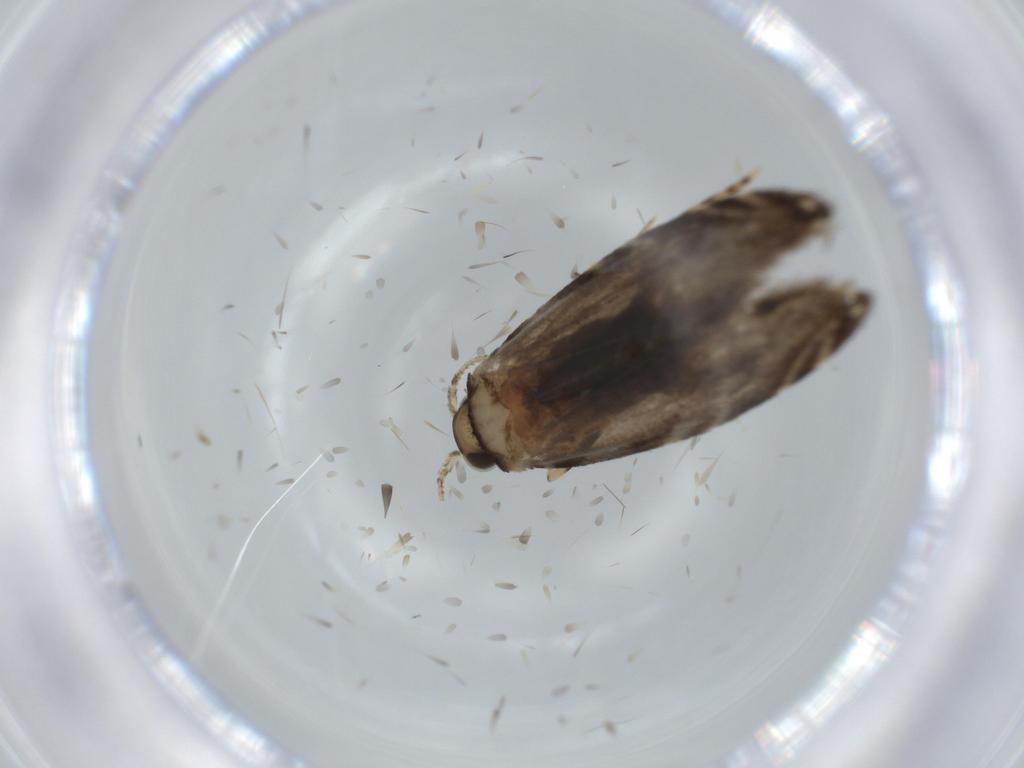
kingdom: Animalia
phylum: Arthropoda
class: Insecta
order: Lepidoptera
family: Tineidae
